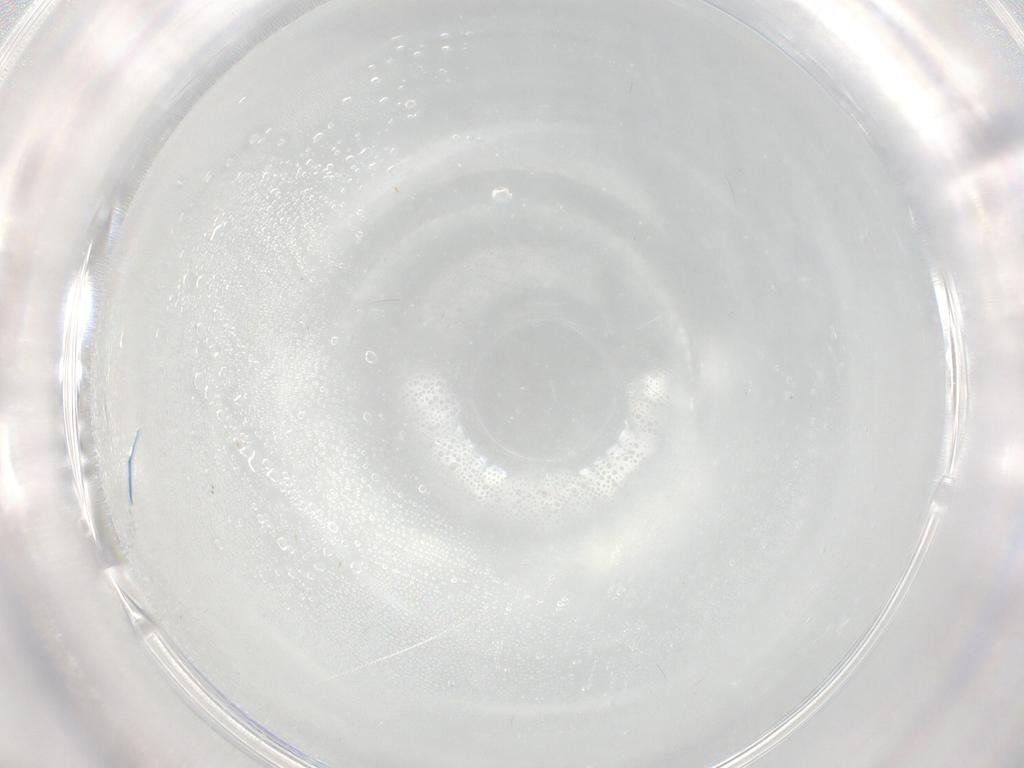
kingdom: Animalia
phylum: Arthropoda
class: Insecta
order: Diptera
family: Cecidomyiidae
